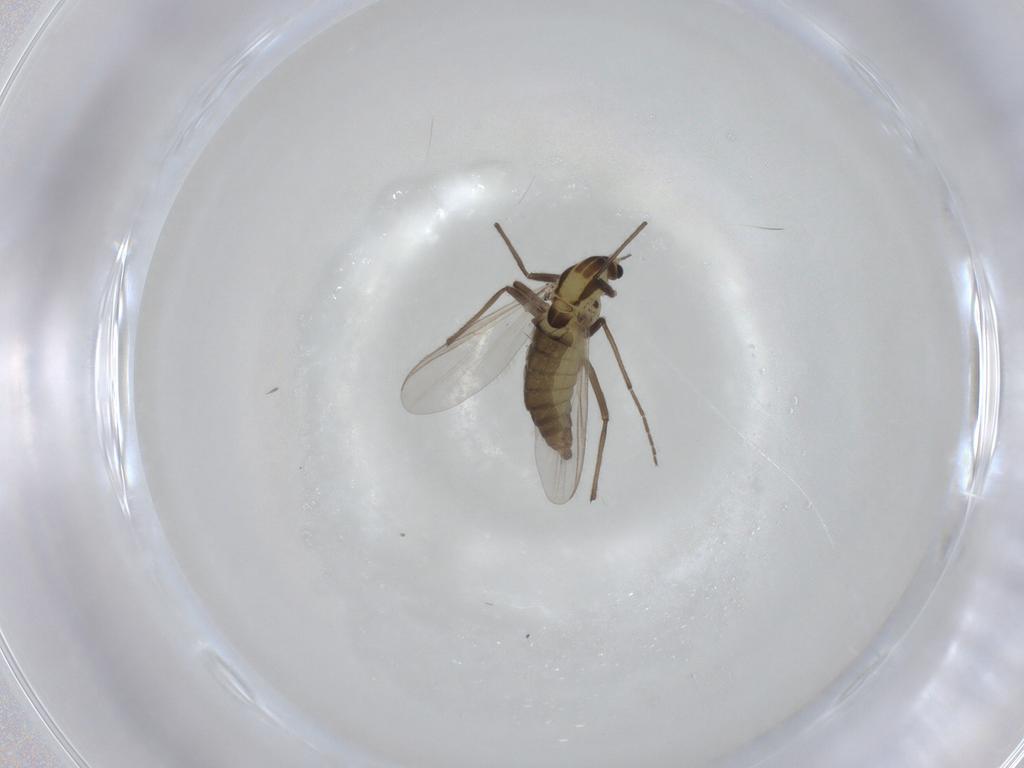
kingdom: Animalia
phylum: Arthropoda
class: Insecta
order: Diptera
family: Chironomidae
